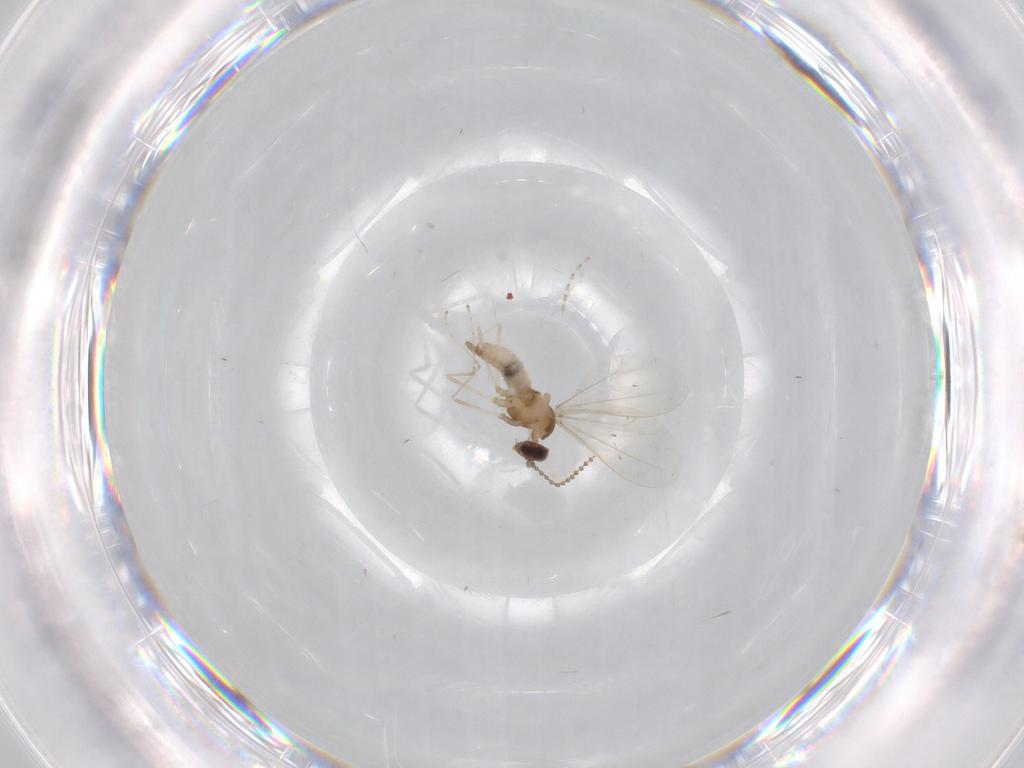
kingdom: Animalia
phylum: Arthropoda
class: Insecta
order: Diptera
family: Cecidomyiidae
